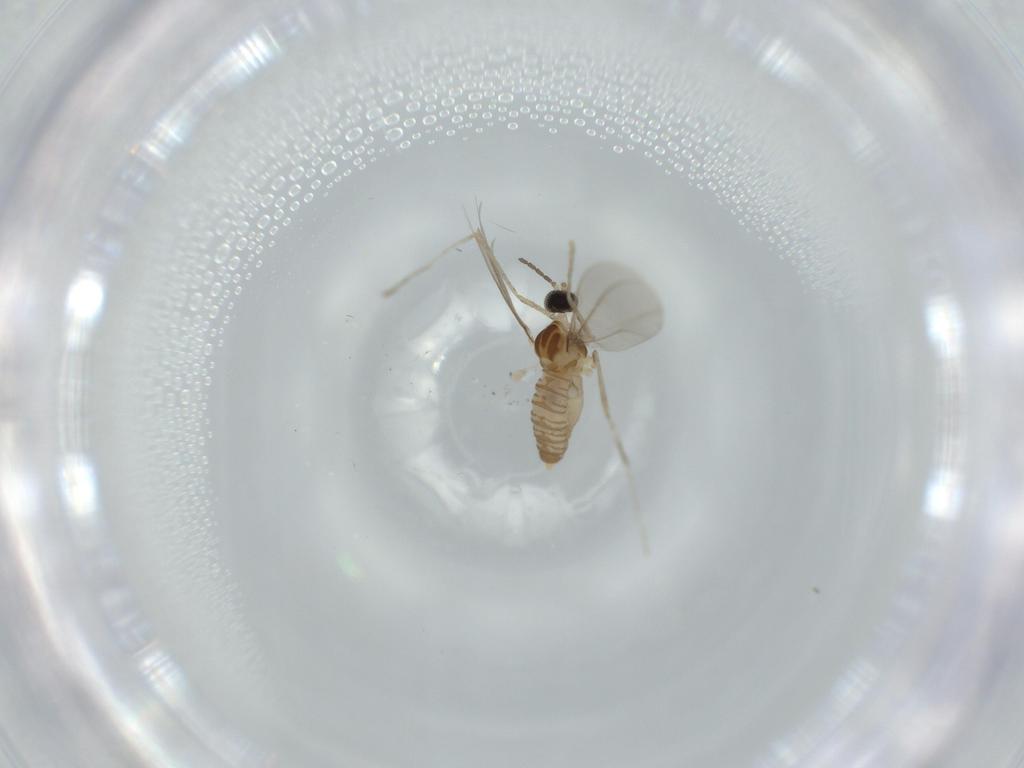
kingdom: Animalia
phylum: Arthropoda
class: Insecta
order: Diptera
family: Cecidomyiidae
